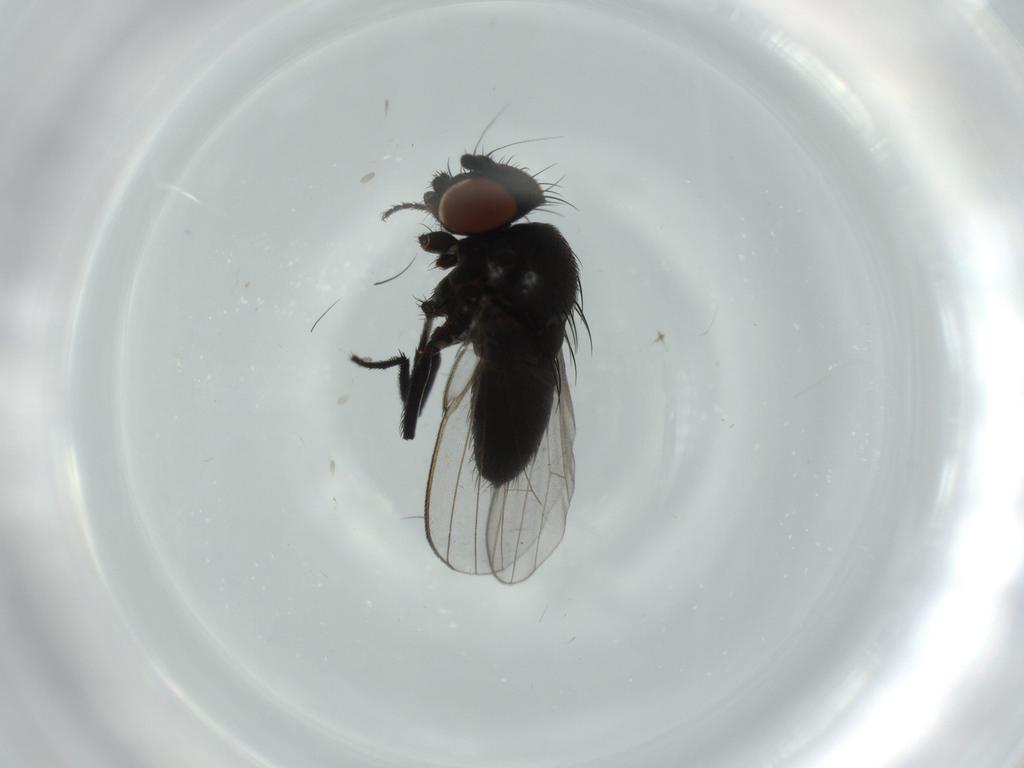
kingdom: Animalia
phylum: Arthropoda
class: Insecta
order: Diptera
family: Milichiidae
